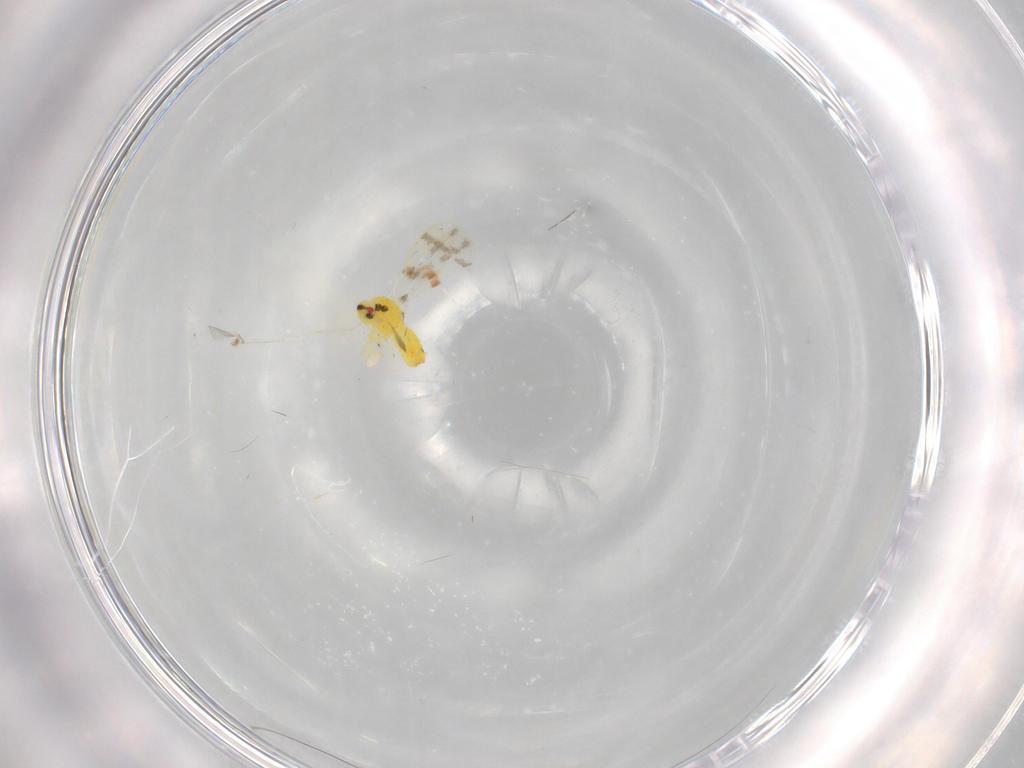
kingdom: Animalia
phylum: Arthropoda
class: Insecta
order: Hemiptera
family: Aleyrodidae
